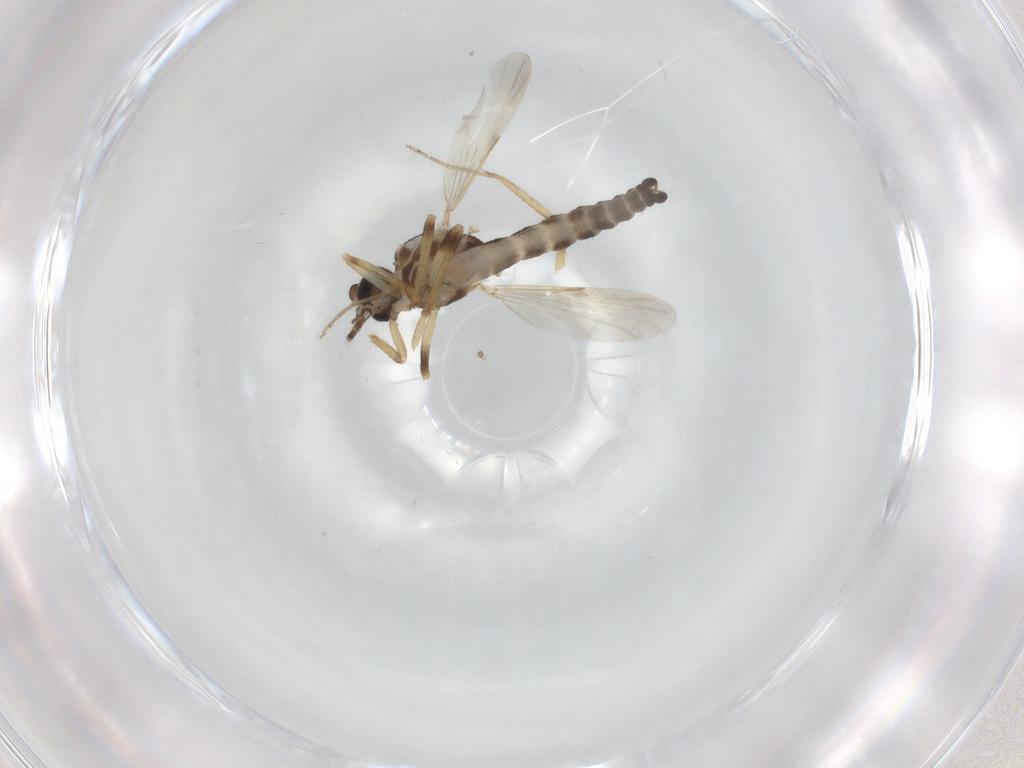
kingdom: Animalia
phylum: Arthropoda
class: Insecta
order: Diptera
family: Ceratopogonidae
